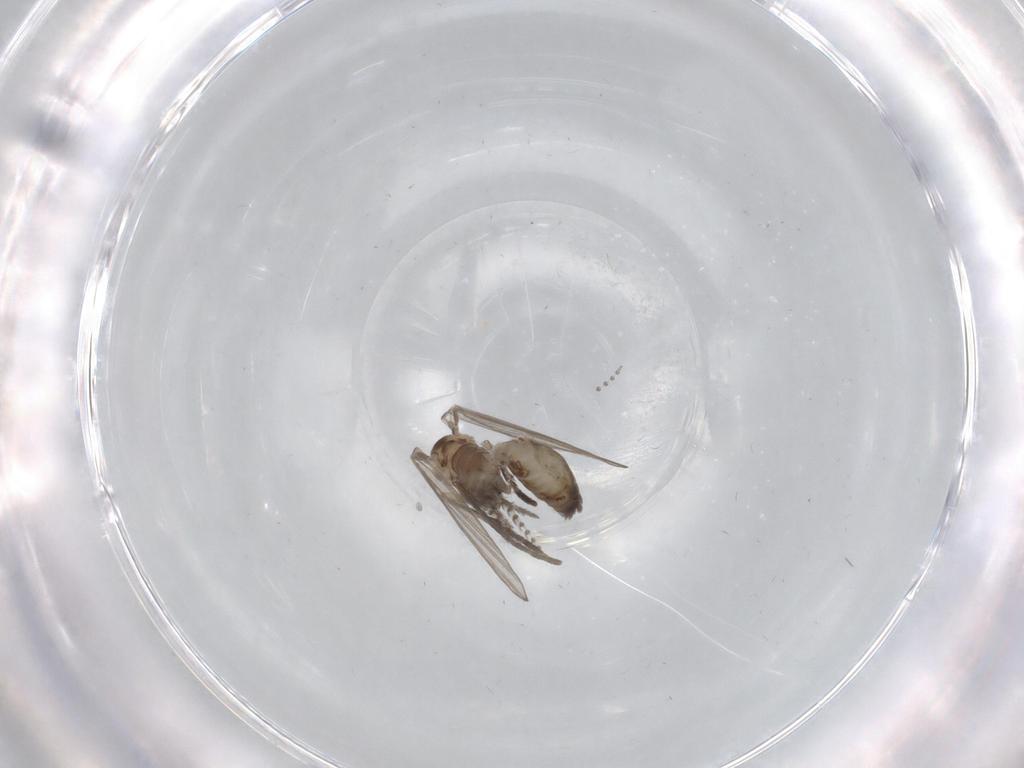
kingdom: Animalia
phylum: Arthropoda
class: Insecta
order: Diptera
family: Psychodidae
